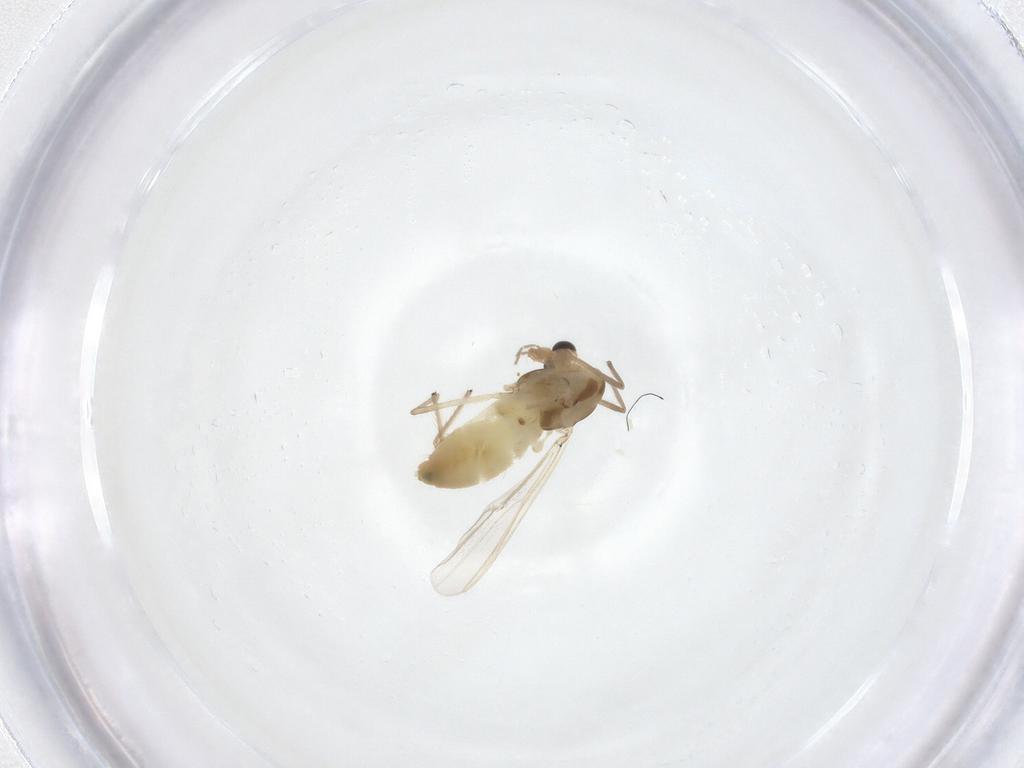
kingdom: Animalia
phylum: Arthropoda
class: Insecta
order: Diptera
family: Chironomidae
